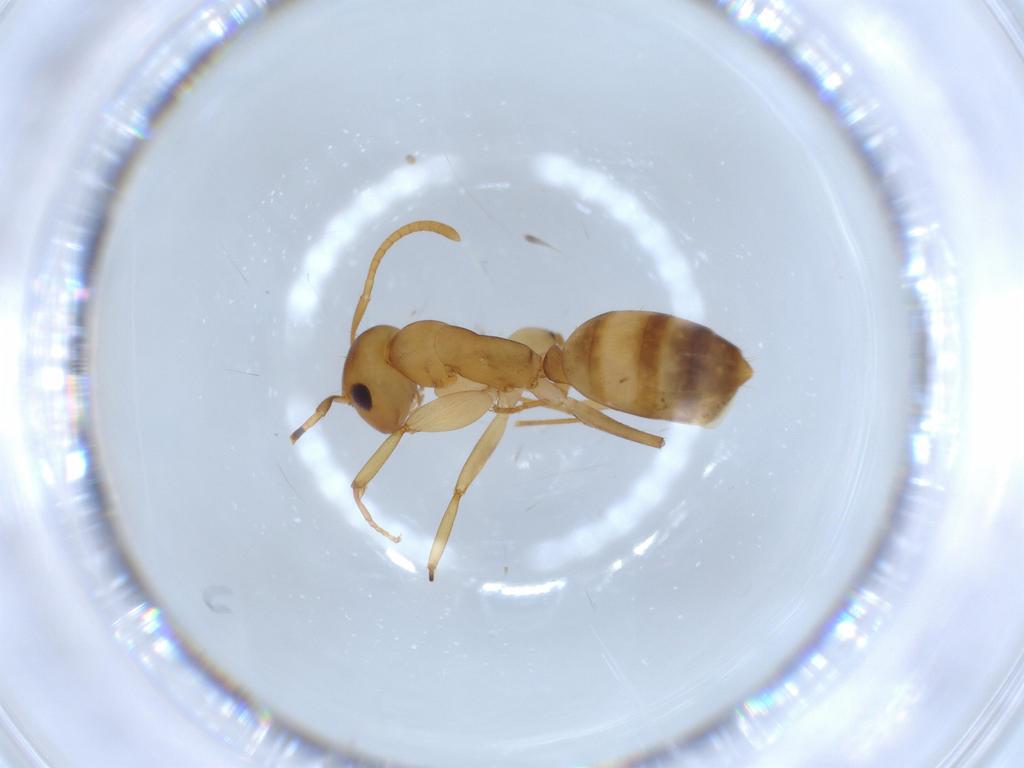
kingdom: Animalia
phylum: Arthropoda
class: Insecta
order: Hymenoptera
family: Formicidae
